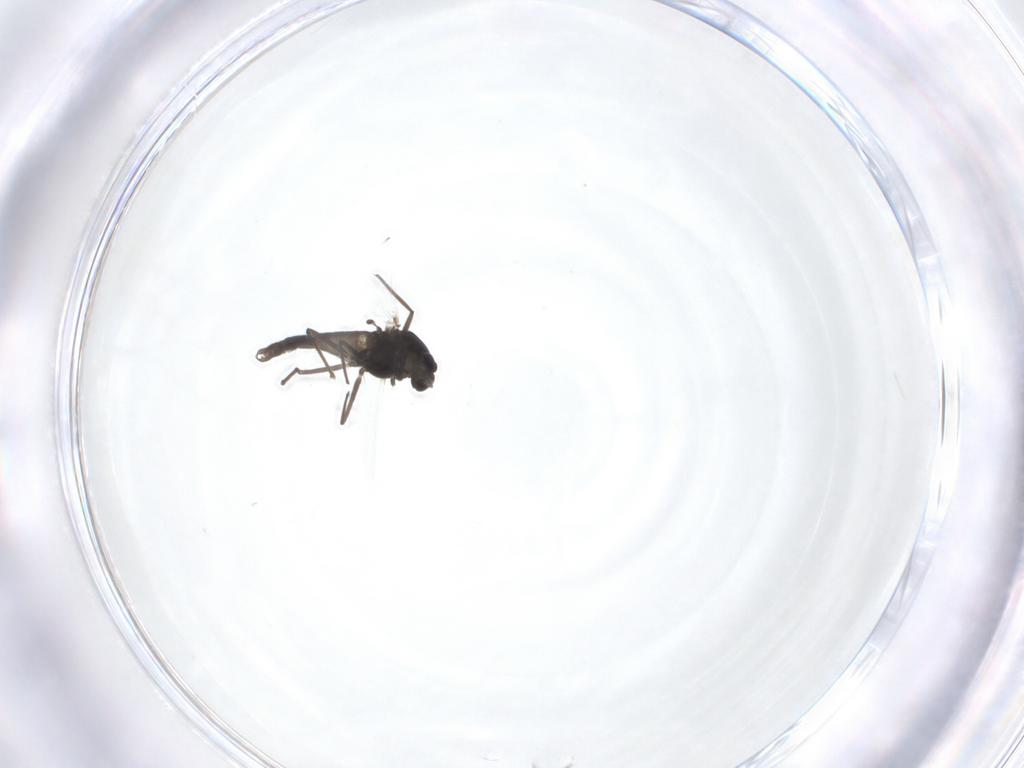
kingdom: Animalia
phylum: Arthropoda
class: Insecta
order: Diptera
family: Chironomidae
